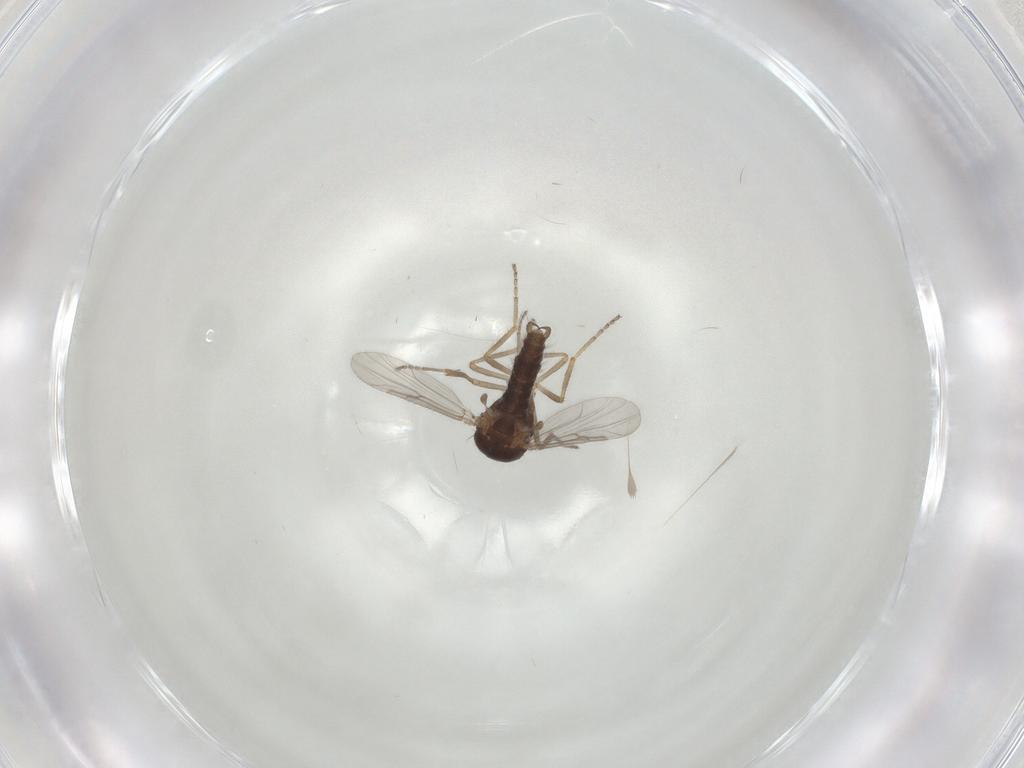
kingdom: Animalia
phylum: Arthropoda
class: Insecta
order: Diptera
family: Ceratopogonidae
